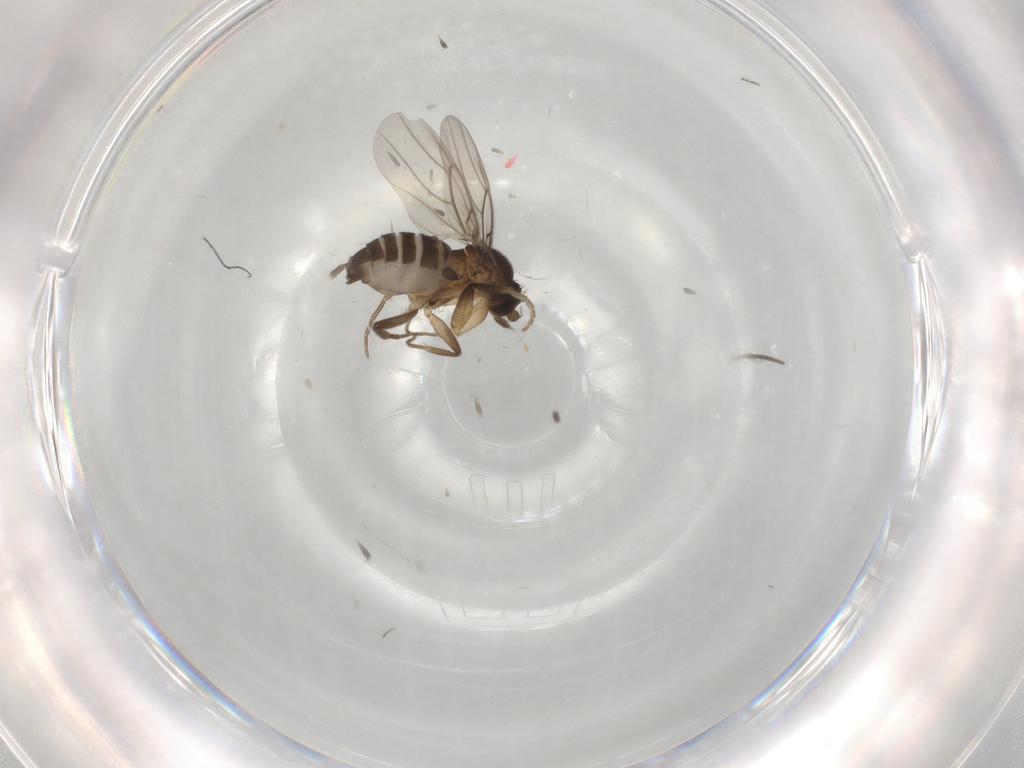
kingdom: Animalia
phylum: Arthropoda
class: Insecta
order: Diptera
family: Phoridae
